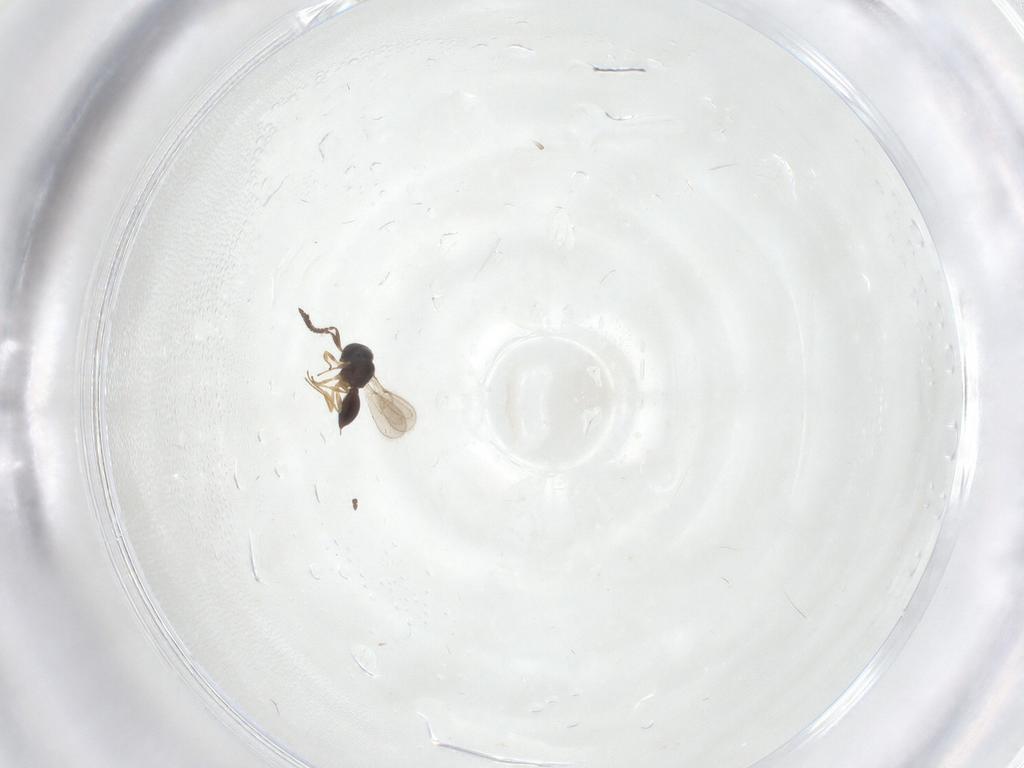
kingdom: Animalia
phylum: Arthropoda
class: Insecta
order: Hymenoptera
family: Scelionidae
